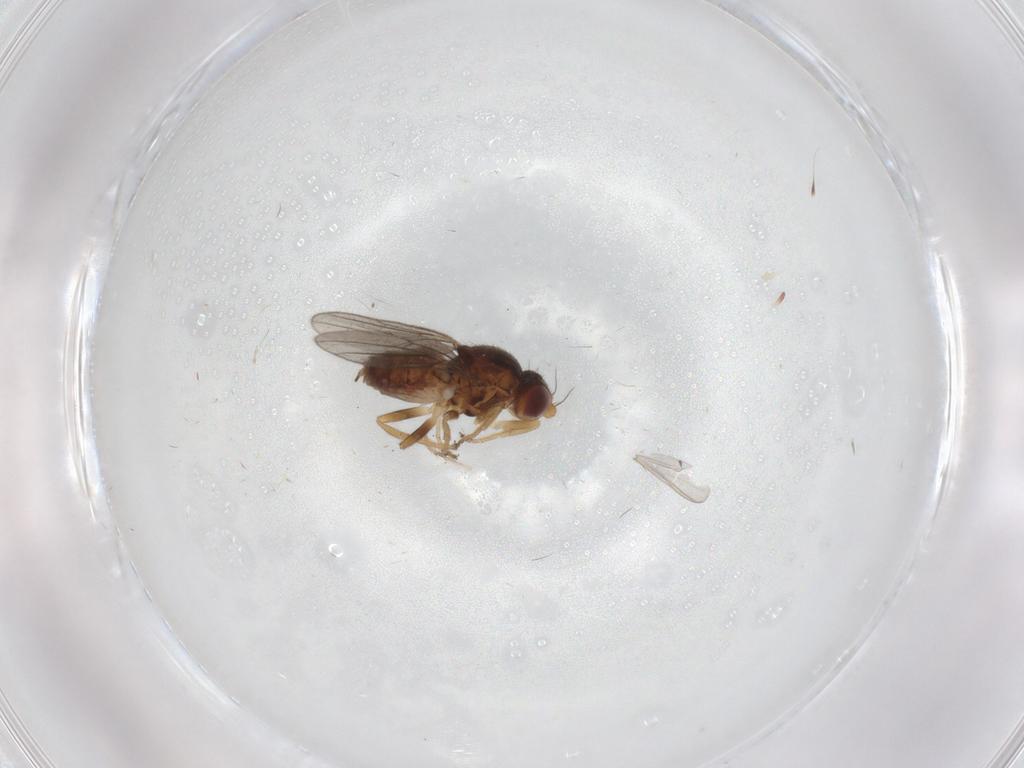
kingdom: Animalia
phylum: Arthropoda
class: Insecta
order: Diptera
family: Chloropidae
